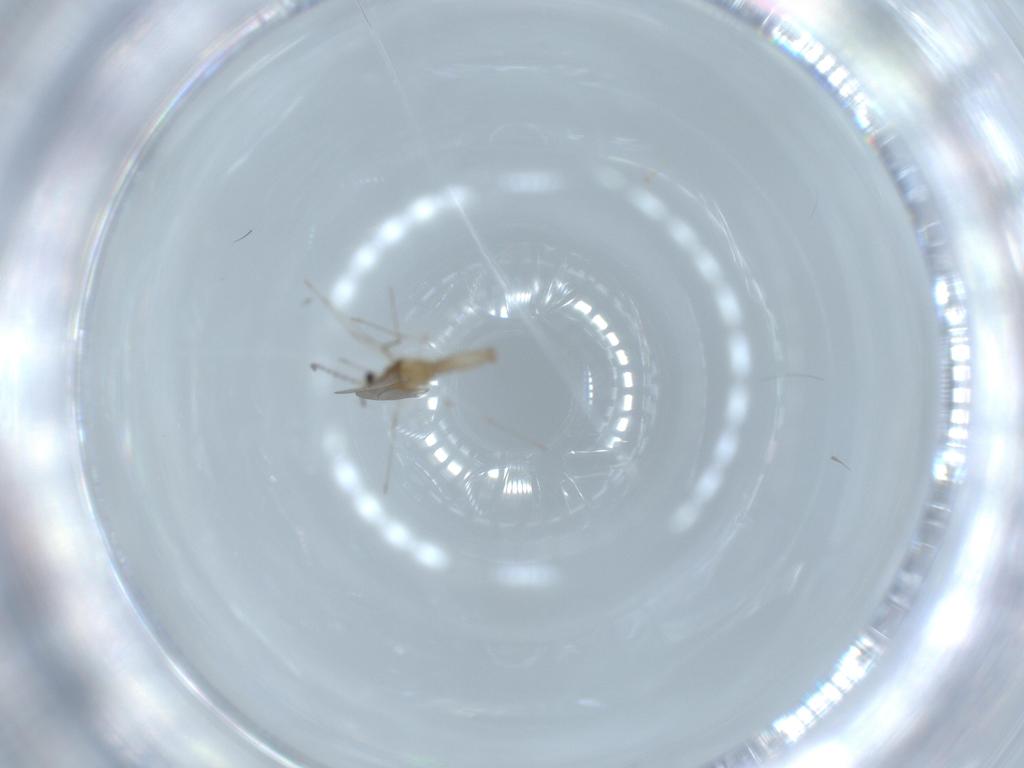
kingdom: Animalia
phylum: Arthropoda
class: Insecta
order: Diptera
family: Cecidomyiidae
